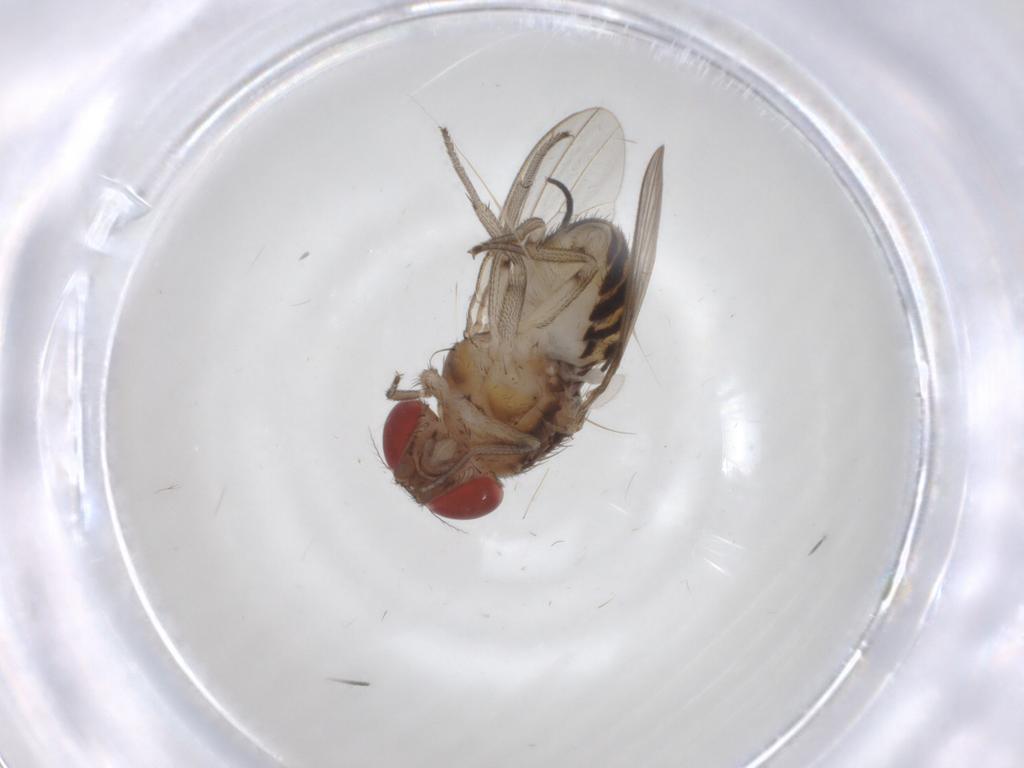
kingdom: Animalia
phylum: Arthropoda
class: Insecta
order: Diptera
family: Drosophilidae
